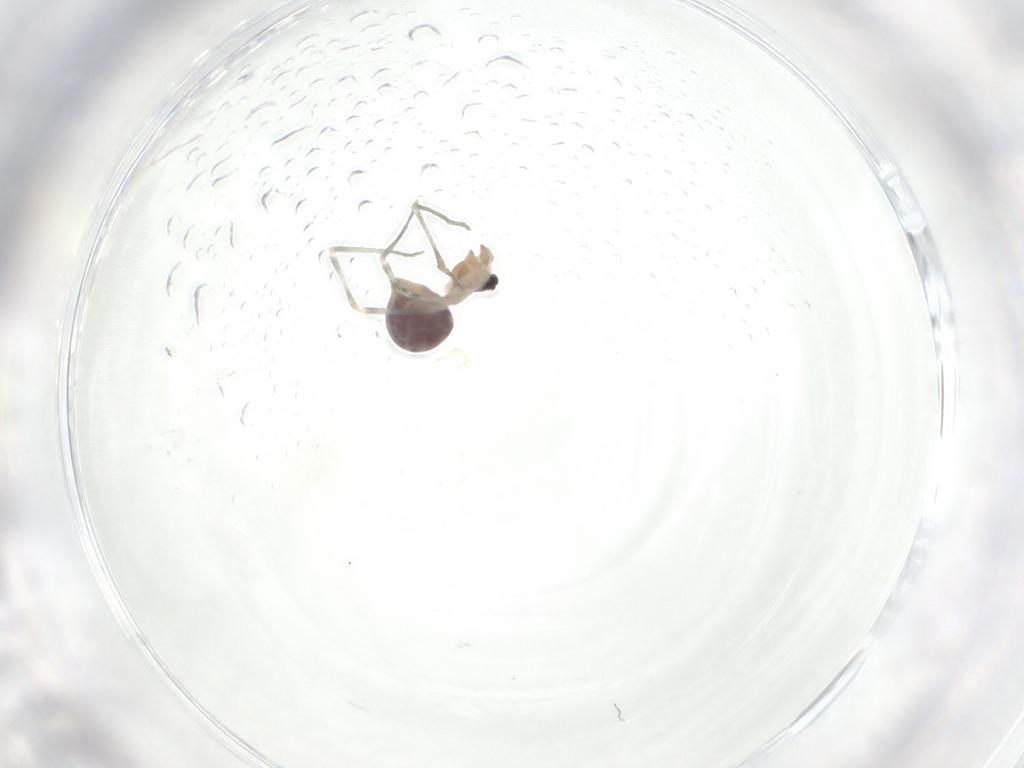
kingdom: Animalia
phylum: Arthropoda
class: Arachnida
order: Araneae
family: Pholcidae
